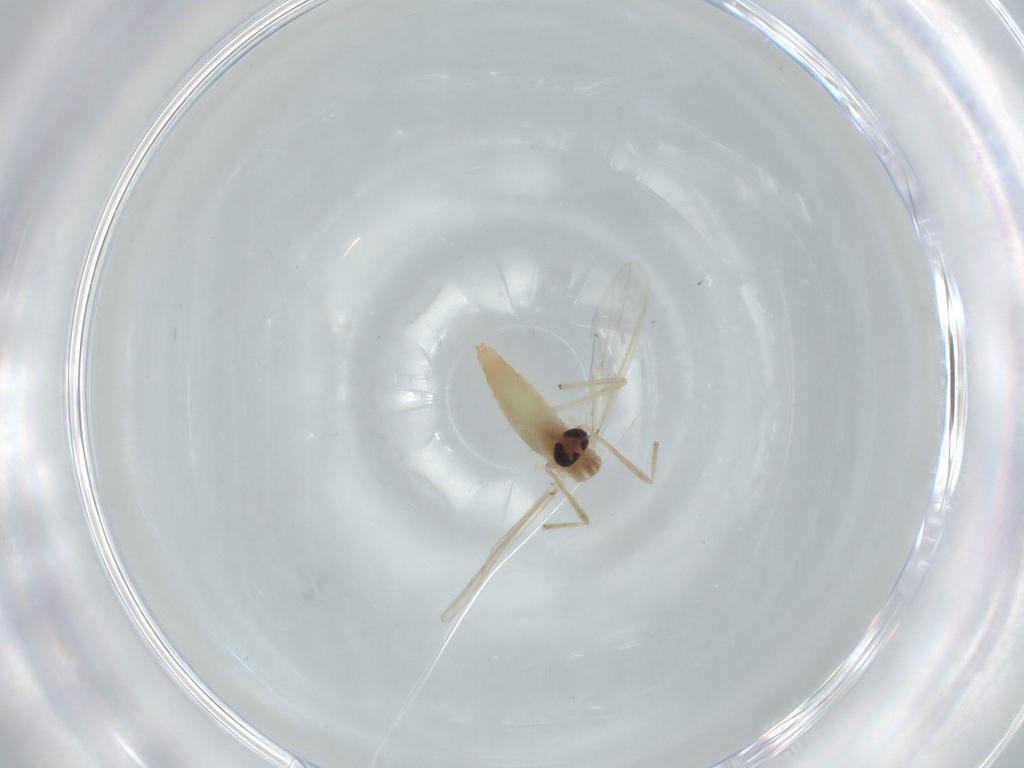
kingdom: Animalia
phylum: Arthropoda
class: Insecta
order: Diptera
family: Cecidomyiidae
